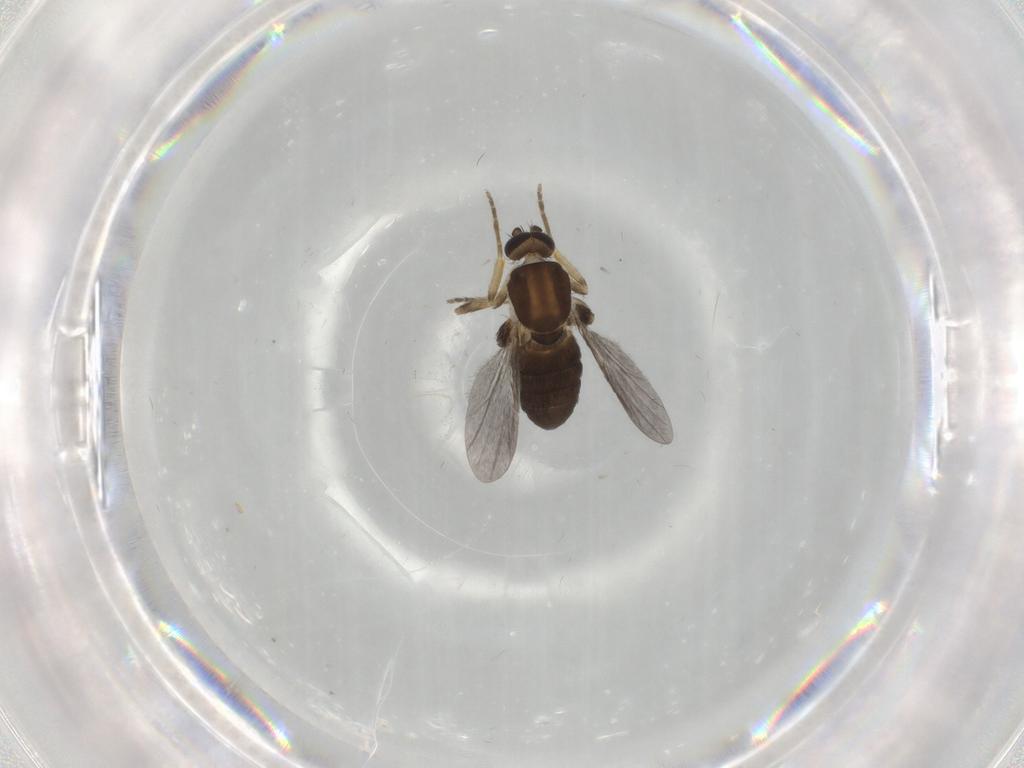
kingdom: Animalia
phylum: Arthropoda
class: Insecta
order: Diptera
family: Ceratopogonidae
